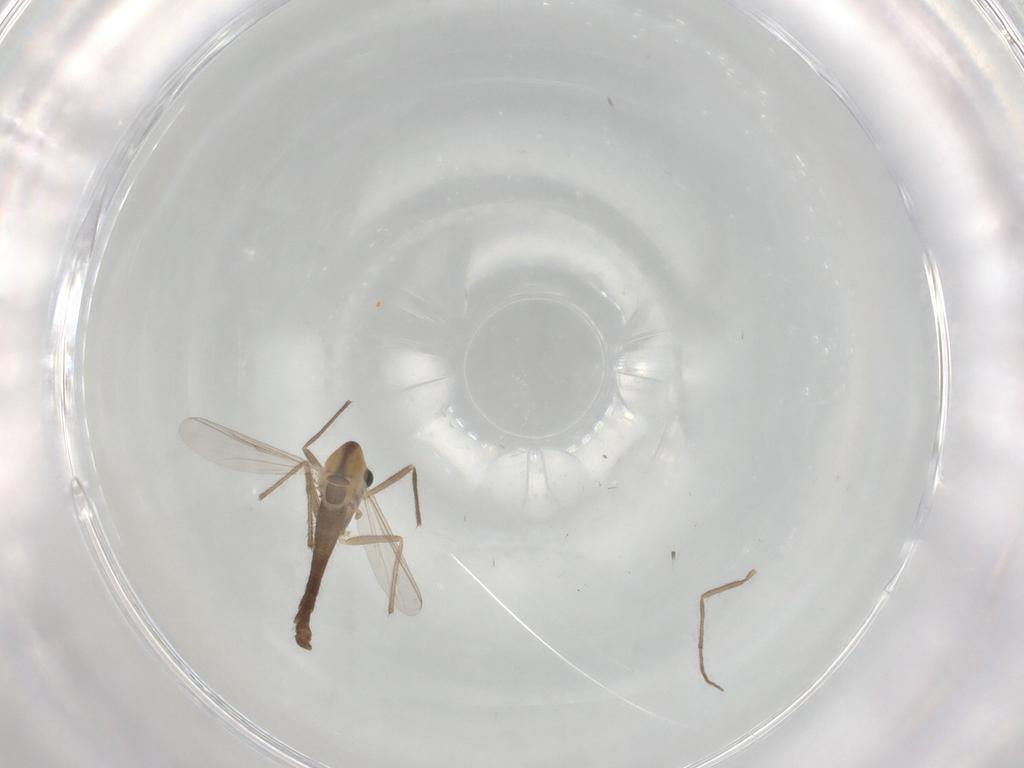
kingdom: Animalia
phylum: Arthropoda
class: Insecta
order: Diptera
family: Chironomidae
